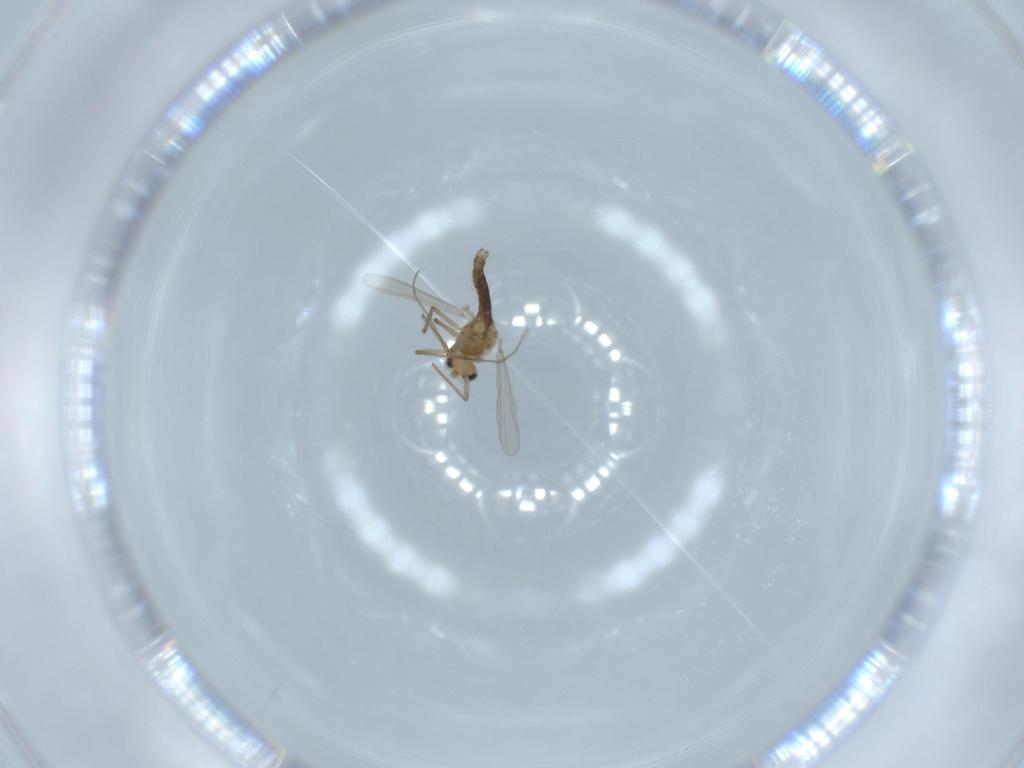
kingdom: Animalia
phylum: Arthropoda
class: Insecta
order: Diptera
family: Chironomidae
